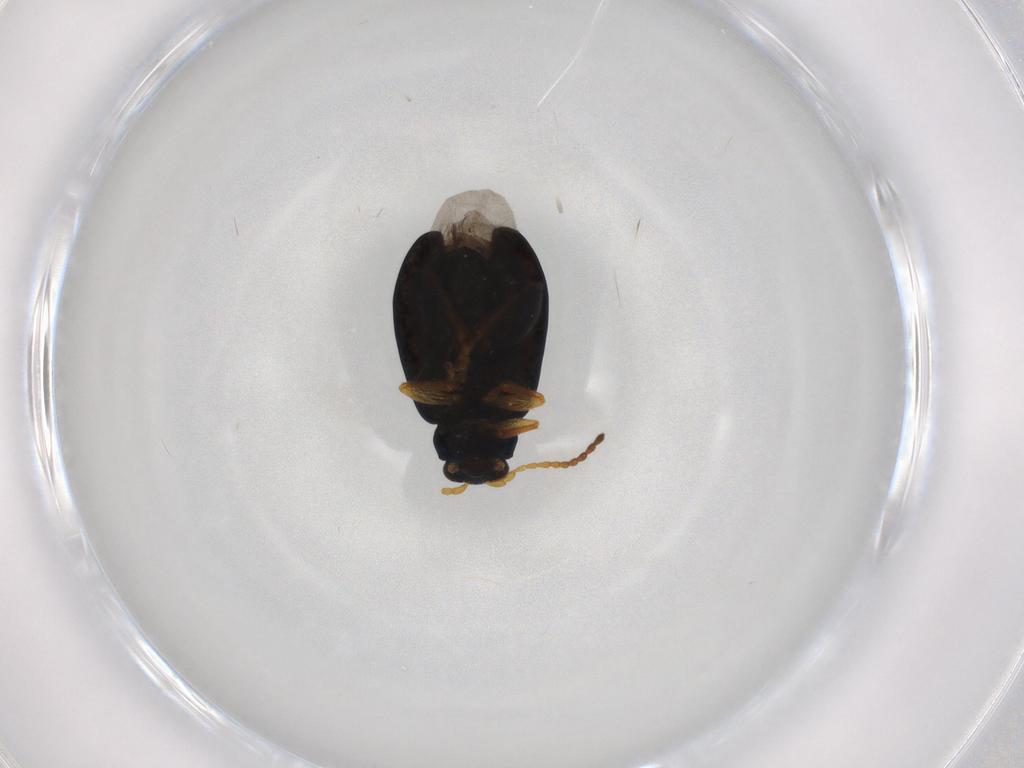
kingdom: Animalia
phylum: Arthropoda
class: Insecta
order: Coleoptera
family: Chrysomelidae
